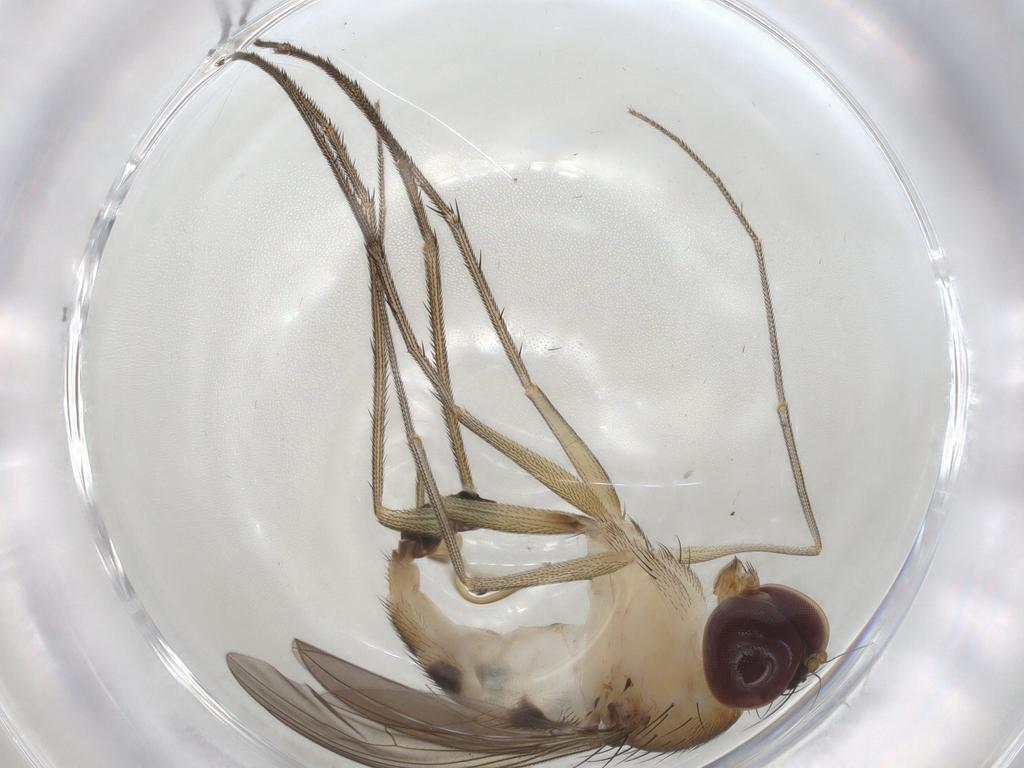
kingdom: Animalia
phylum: Arthropoda
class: Insecta
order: Diptera
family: Dolichopodidae
